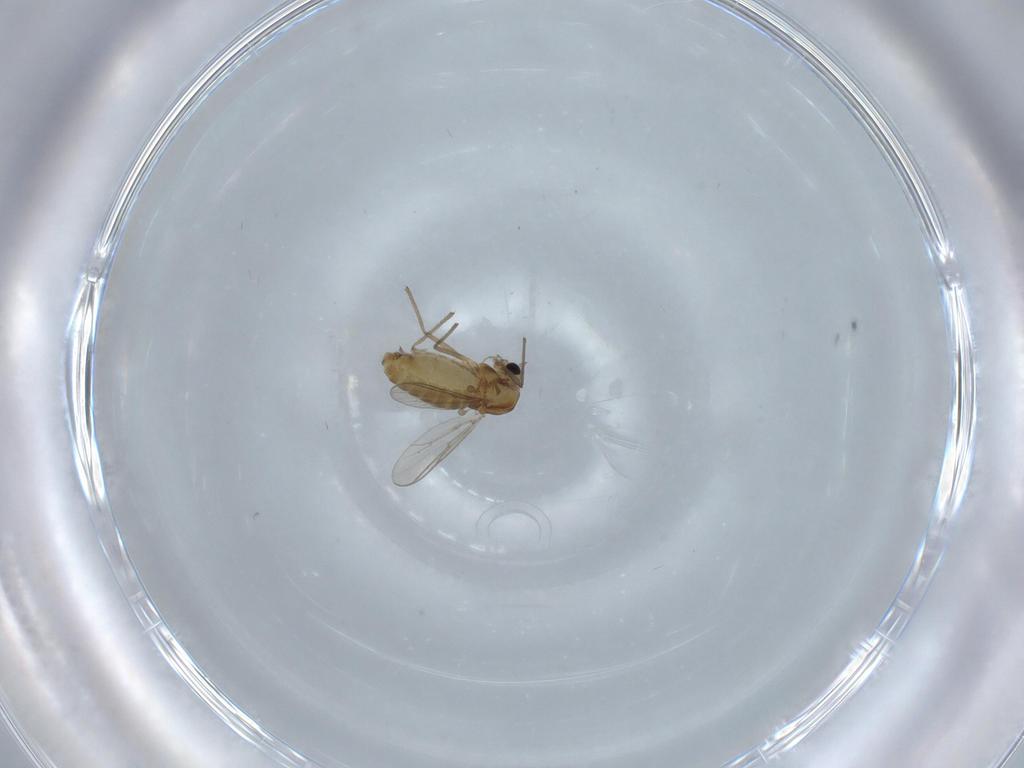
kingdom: Animalia
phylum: Arthropoda
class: Insecta
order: Diptera
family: Chironomidae
